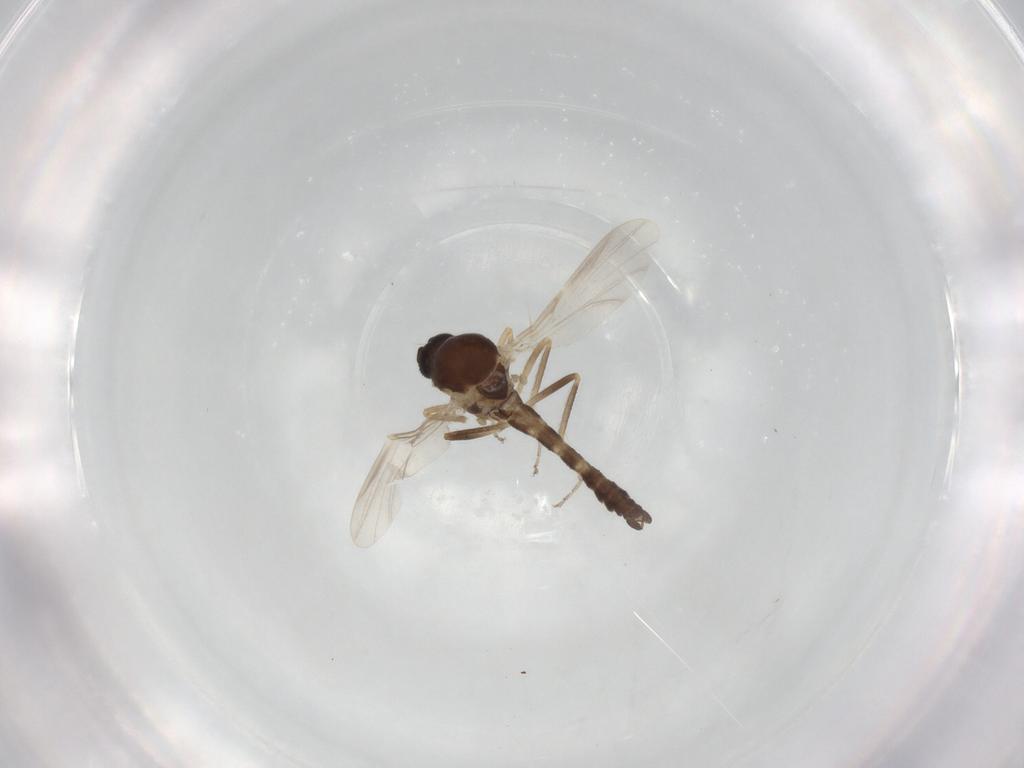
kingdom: Animalia
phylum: Arthropoda
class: Insecta
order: Diptera
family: Ceratopogonidae
